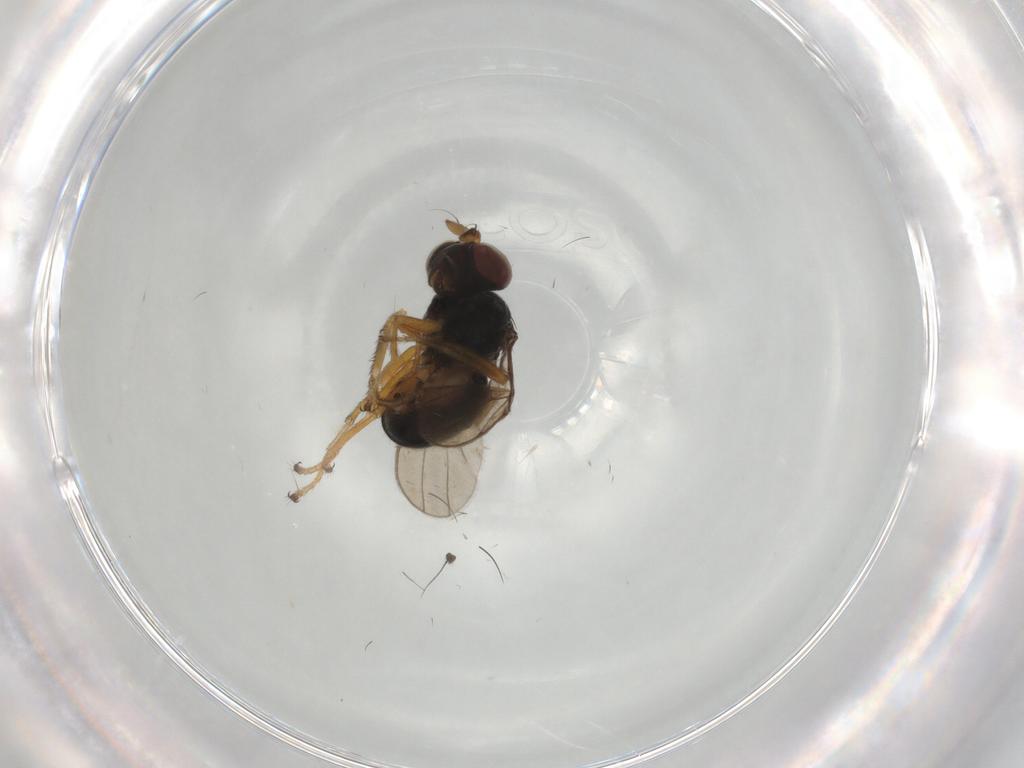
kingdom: Animalia
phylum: Arthropoda
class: Insecta
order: Diptera
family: Ephydridae
